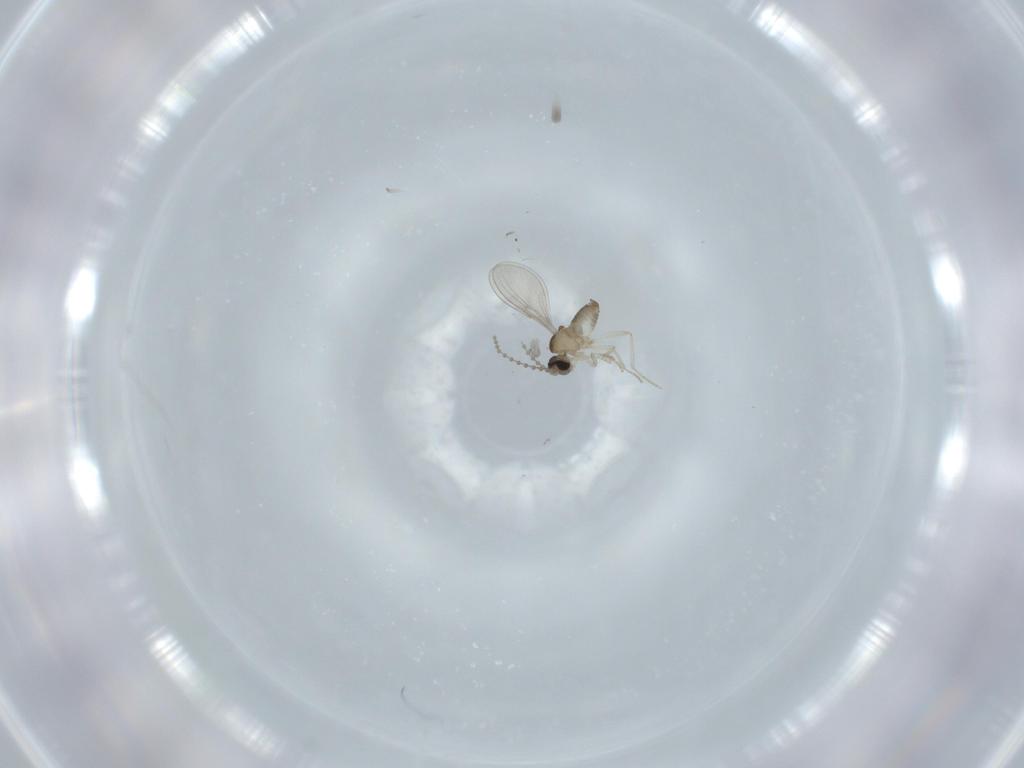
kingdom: Animalia
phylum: Arthropoda
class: Insecta
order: Diptera
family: Cecidomyiidae
